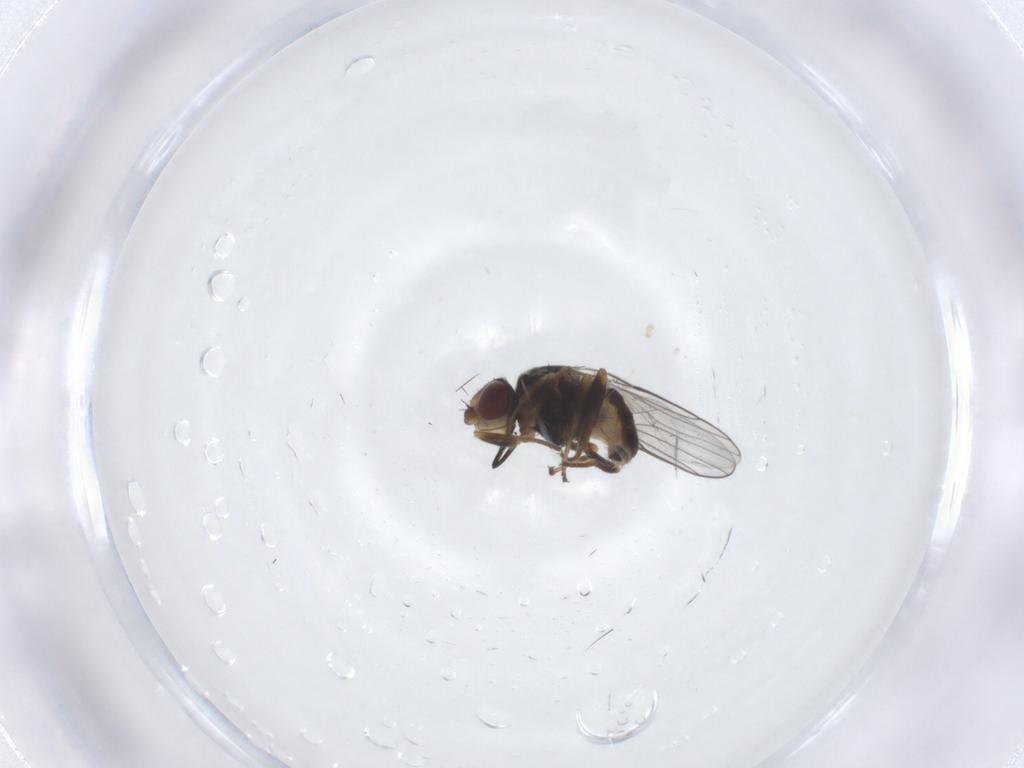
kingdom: Animalia
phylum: Arthropoda
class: Insecta
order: Diptera
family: Chloropidae
